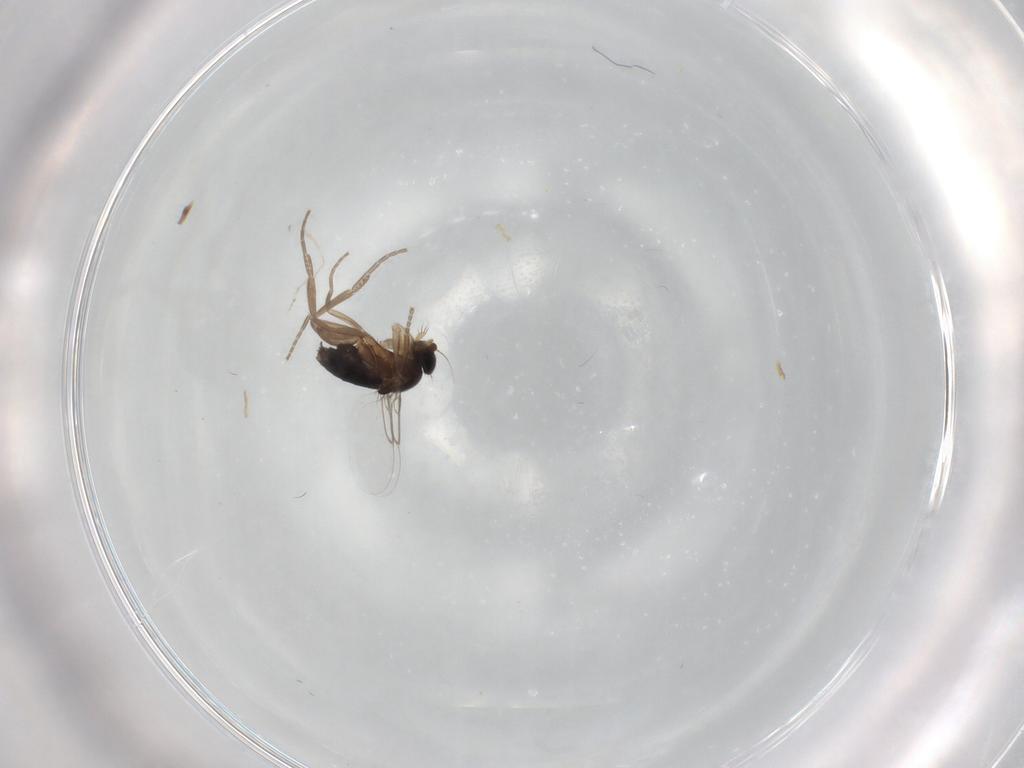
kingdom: Animalia
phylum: Arthropoda
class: Insecta
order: Diptera
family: Phoridae
